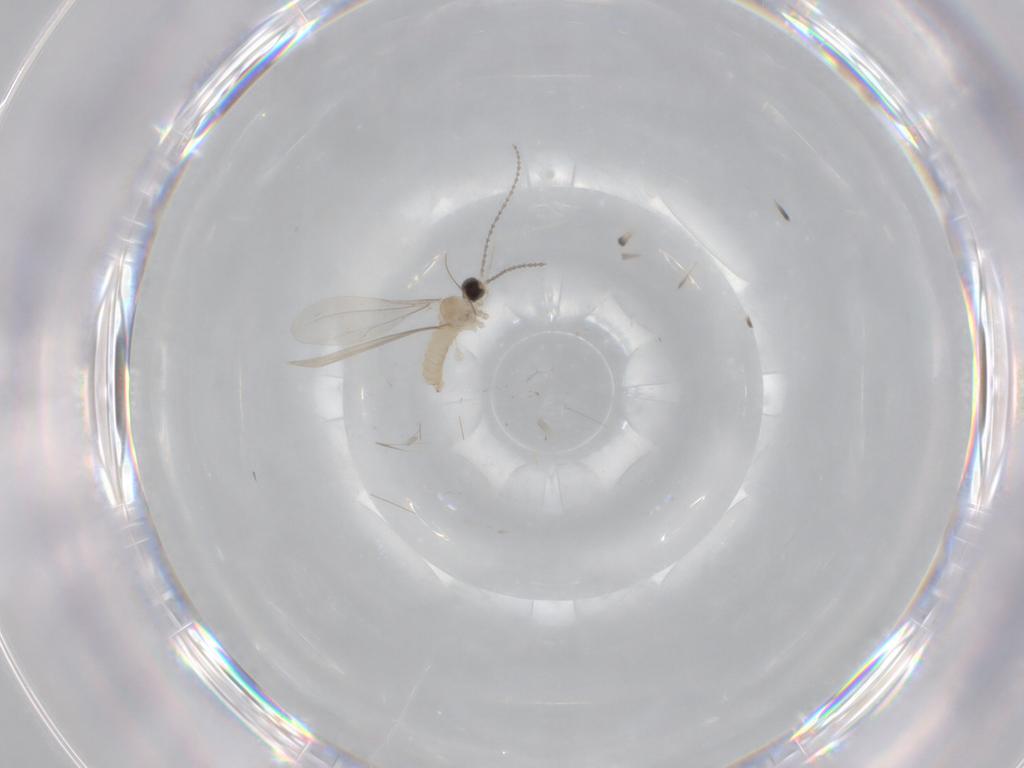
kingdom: Animalia
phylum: Arthropoda
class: Insecta
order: Diptera
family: Cecidomyiidae
